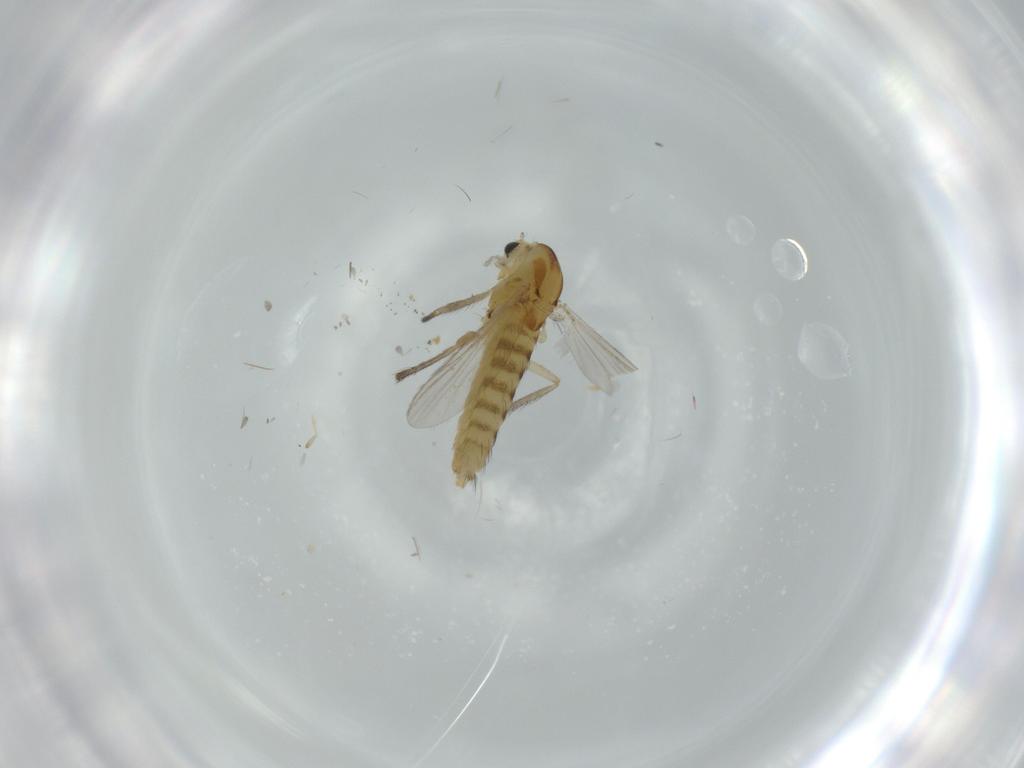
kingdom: Animalia
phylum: Arthropoda
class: Insecta
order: Diptera
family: Chironomidae
